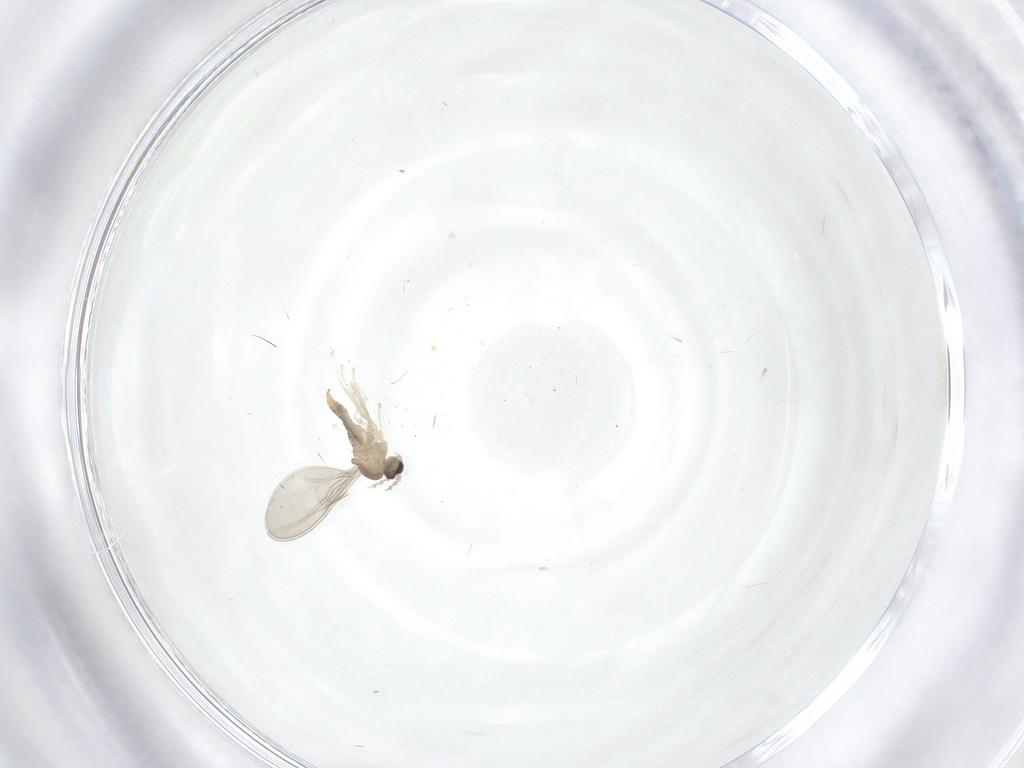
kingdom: Animalia
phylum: Arthropoda
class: Insecta
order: Diptera
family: Cecidomyiidae
